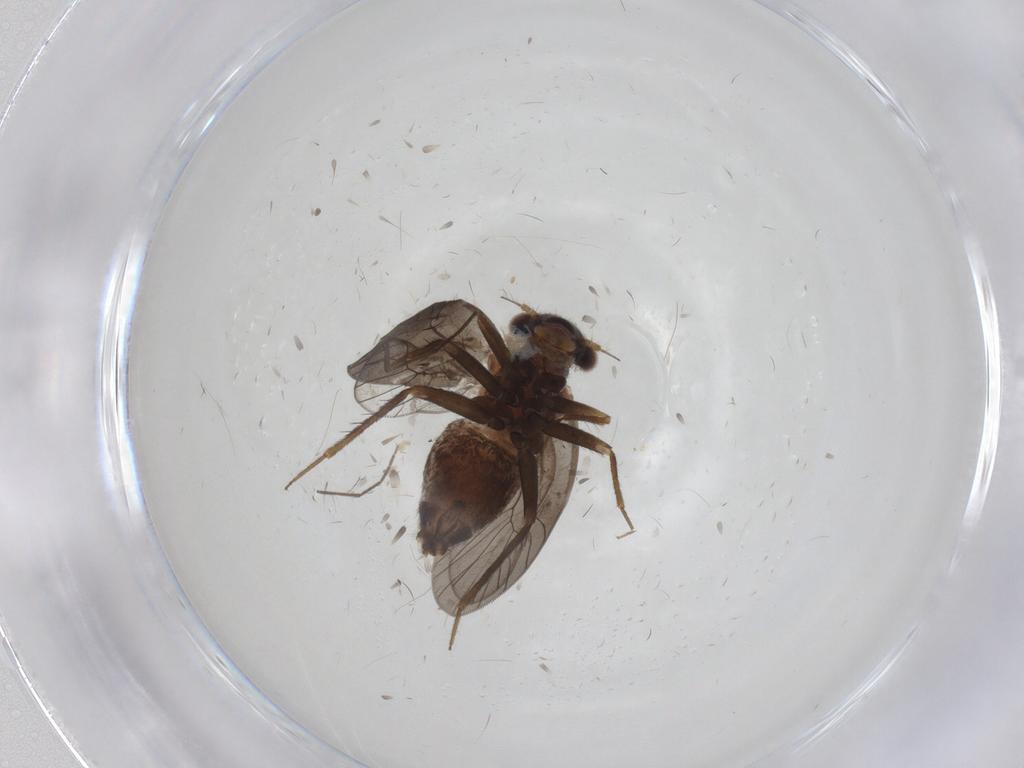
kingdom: Animalia
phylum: Arthropoda
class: Insecta
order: Psocodea
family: Lepidopsocidae
